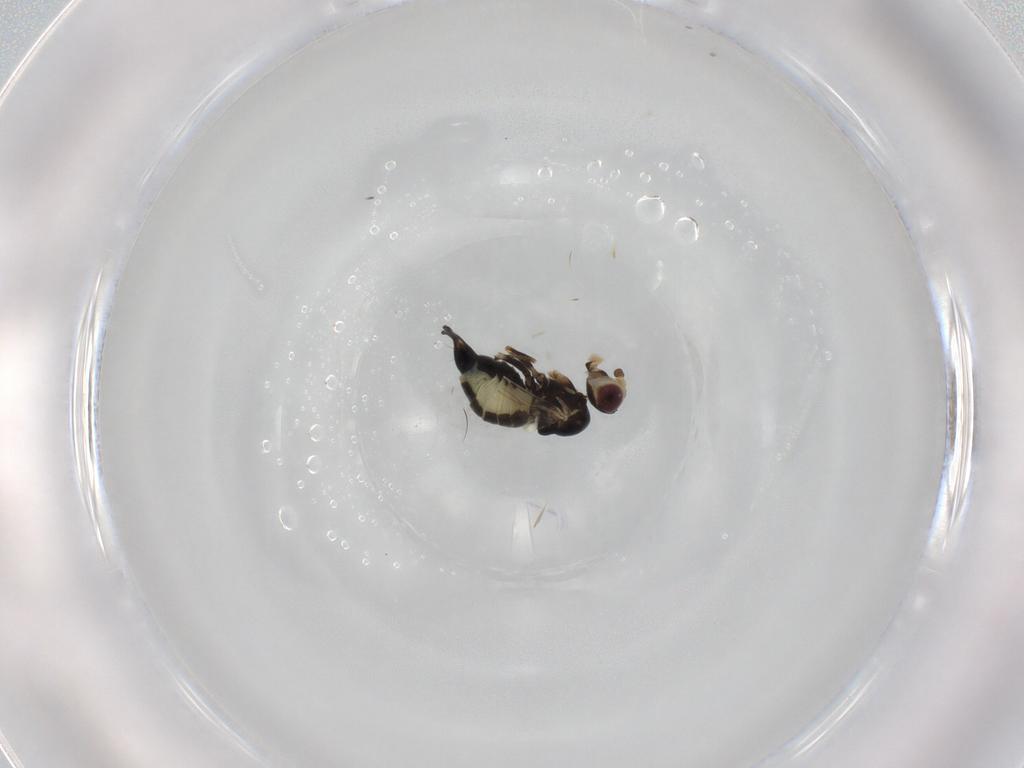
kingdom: Animalia
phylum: Arthropoda
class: Insecta
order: Diptera
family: Agromyzidae
